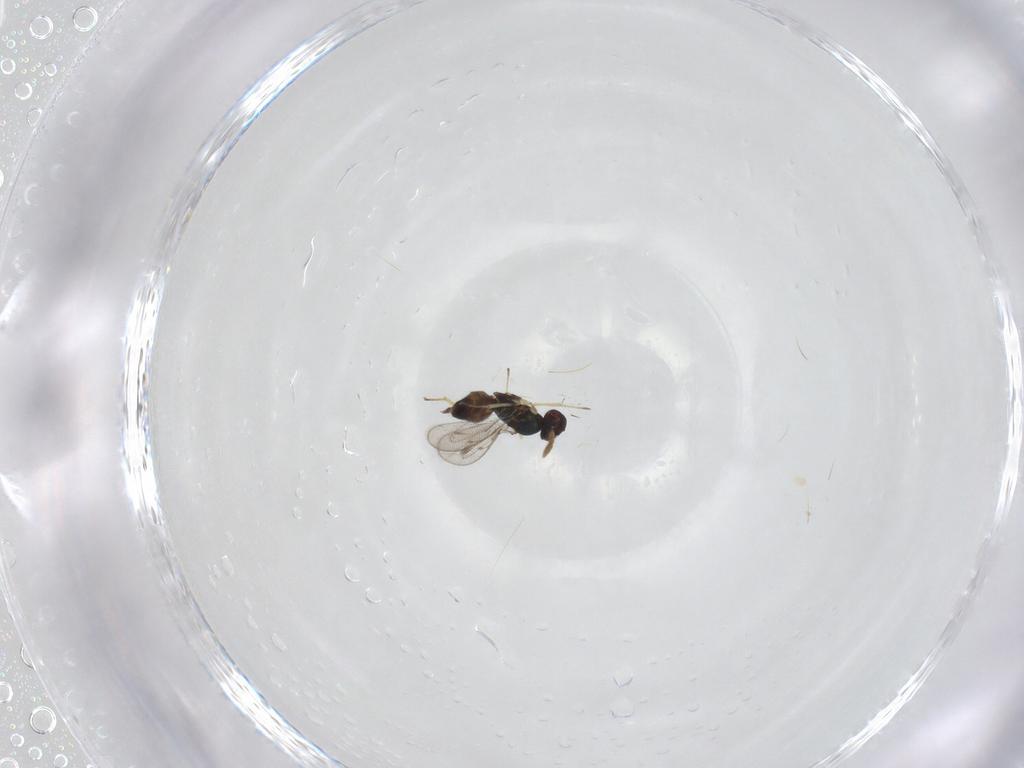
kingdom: Animalia
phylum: Arthropoda
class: Insecta
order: Hymenoptera
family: Eulophidae
